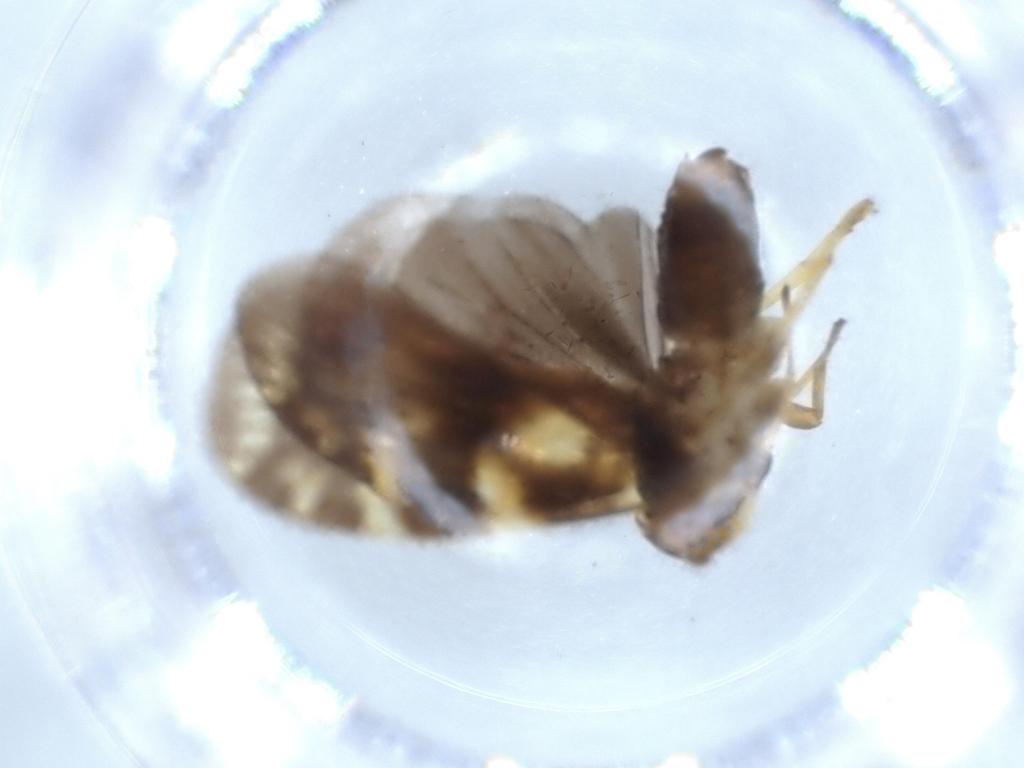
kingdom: Animalia
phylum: Arthropoda
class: Insecta
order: Hemiptera
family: Cixiidae
